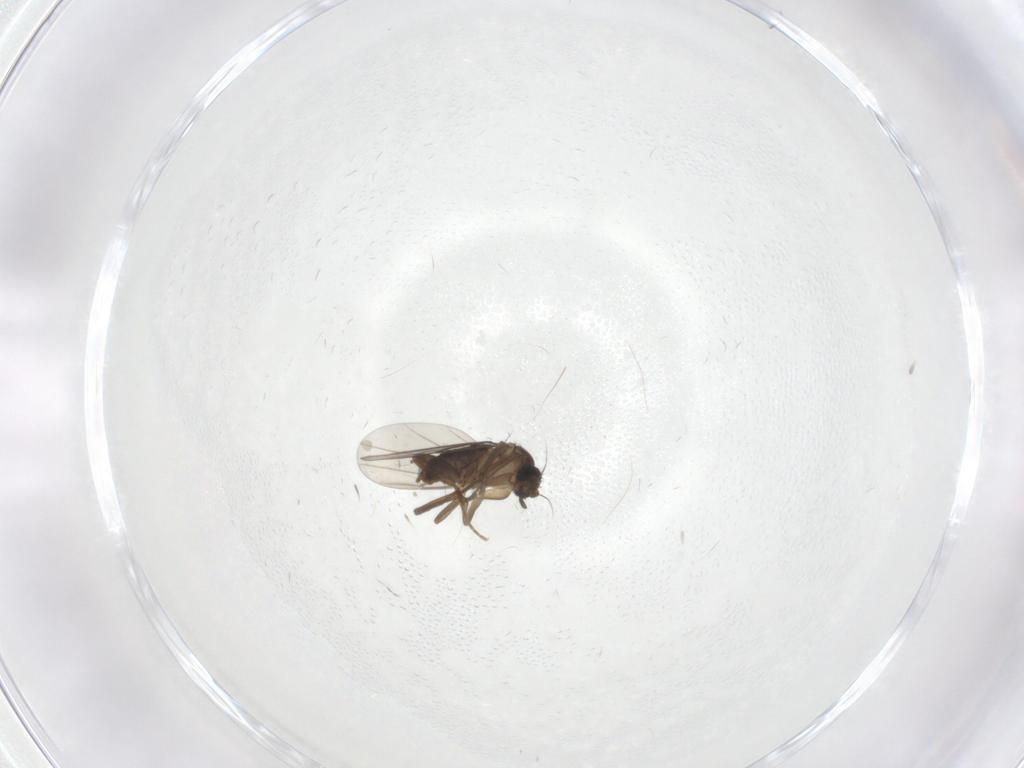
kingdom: Animalia
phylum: Arthropoda
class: Insecta
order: Diptera
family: Phoridae
